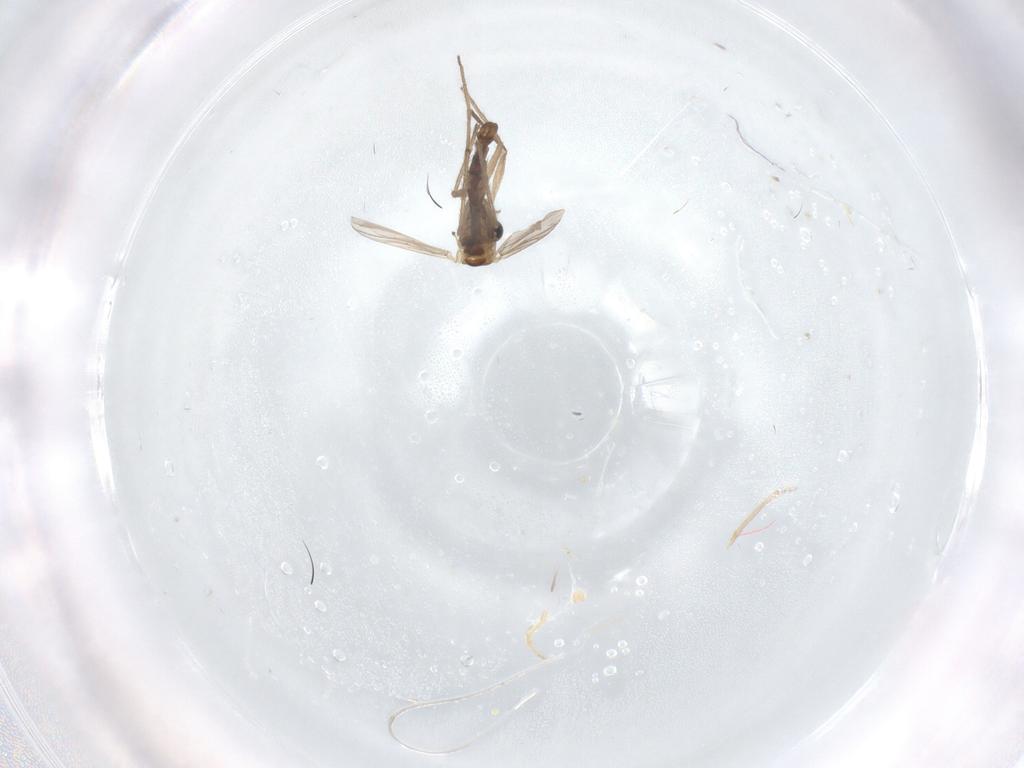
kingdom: Animalia
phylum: Arthropoda
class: Insecta
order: Diptera
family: Chironomidae
